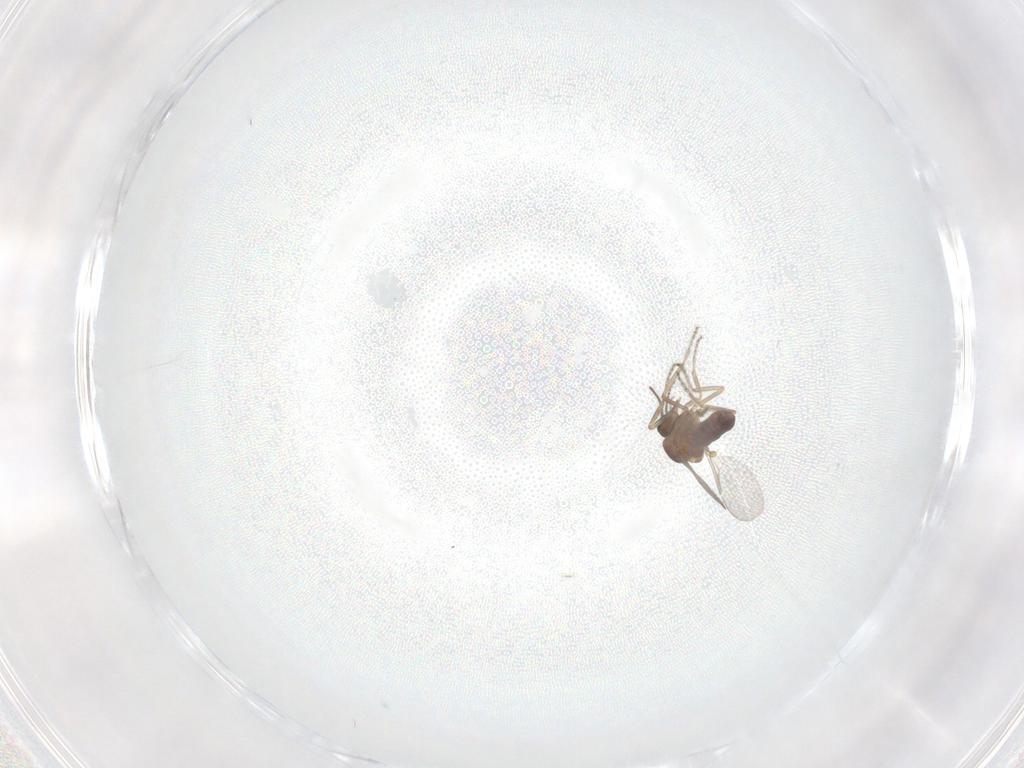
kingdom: Animalia
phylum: Arthropoda
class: Insecta
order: Diptera
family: Ceratopogonidae
